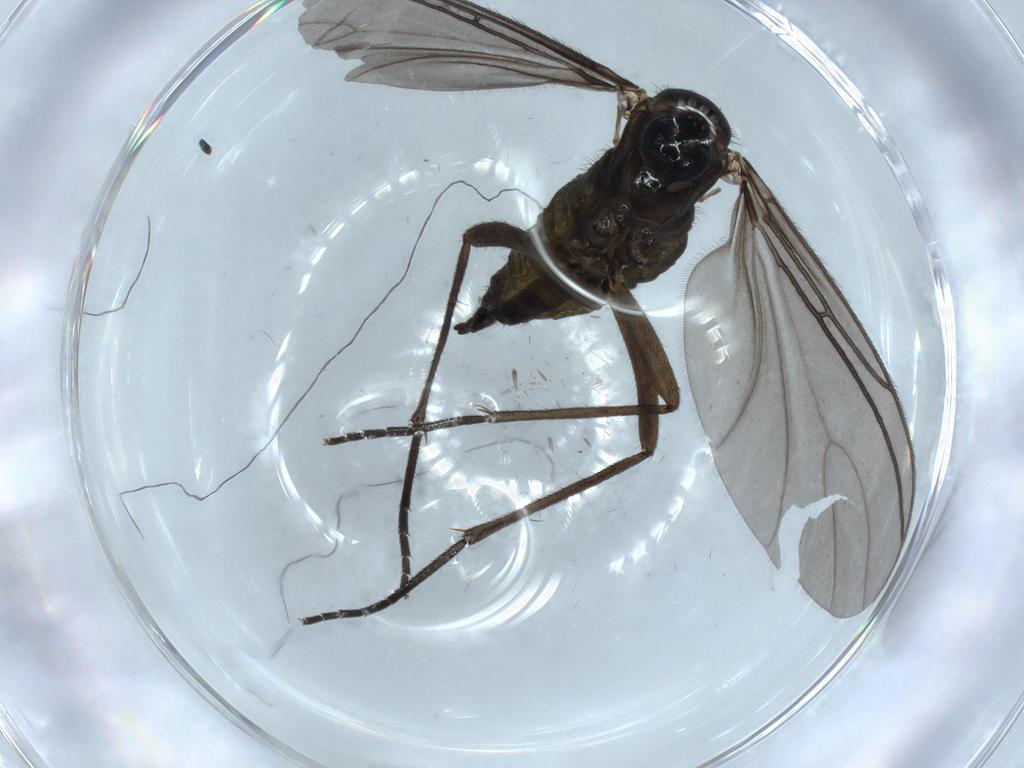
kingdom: Animalia
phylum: Arthropoda
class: Insecta
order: Diptera
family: Sciaridae
